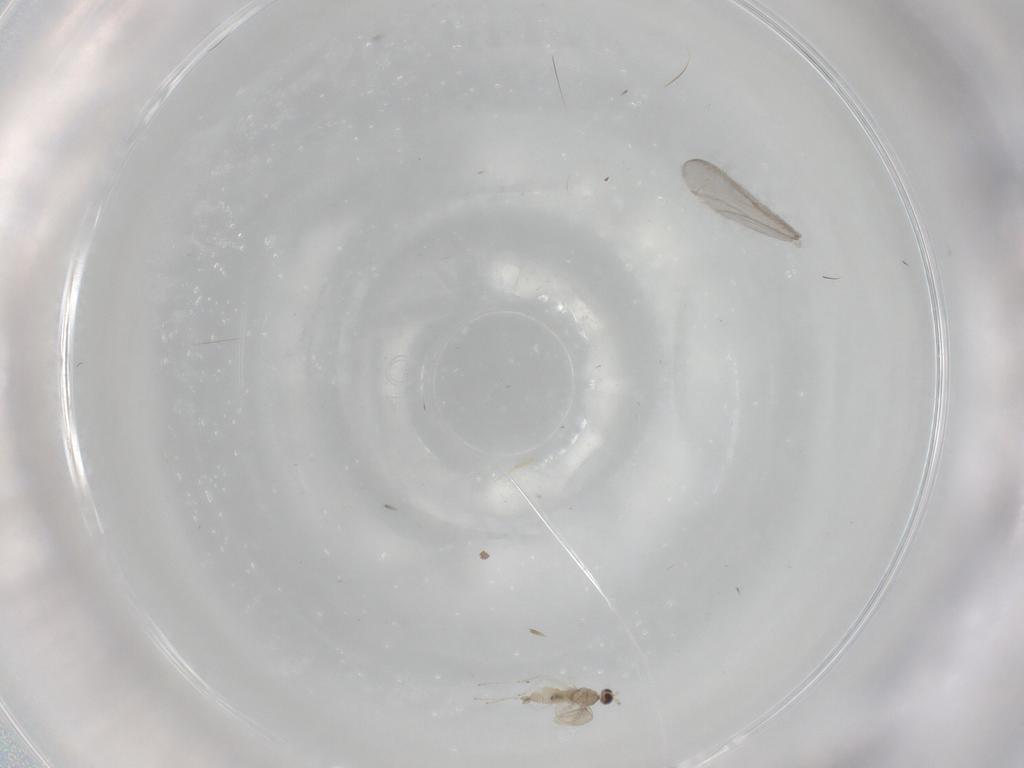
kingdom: Animalia
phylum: Arthropoda
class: Insecta
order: Diptera
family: Cecidomyiidae
